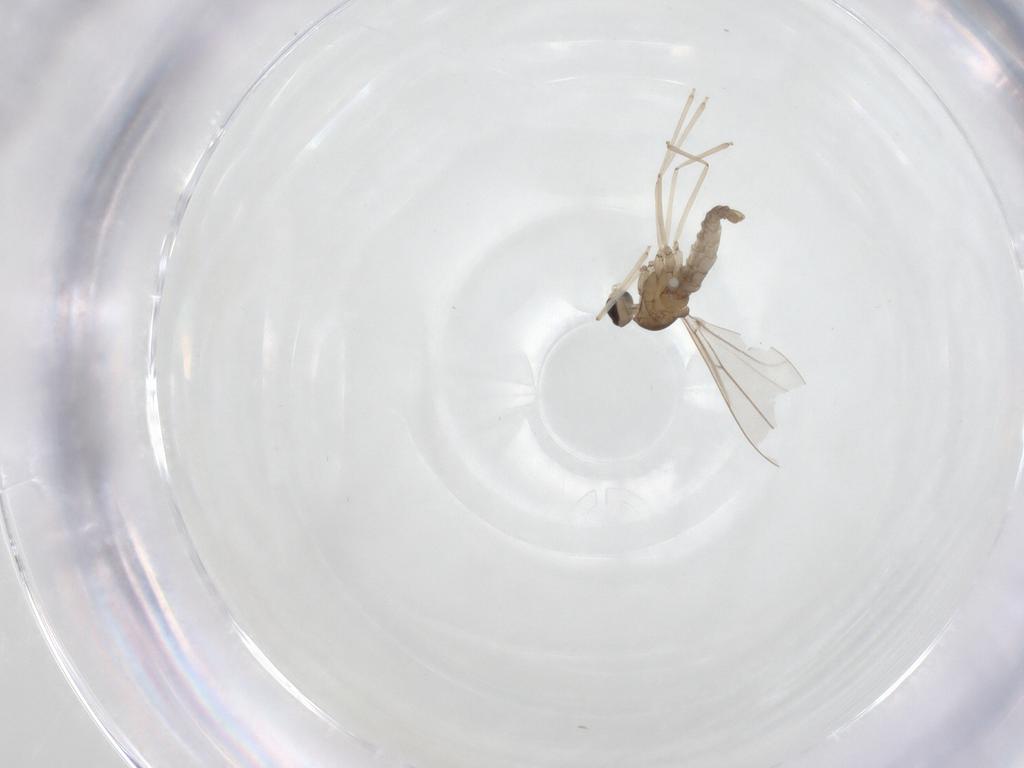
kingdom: Animalia
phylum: Arthropoda
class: Insecta
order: Diptera
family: Cecidomyiidae
